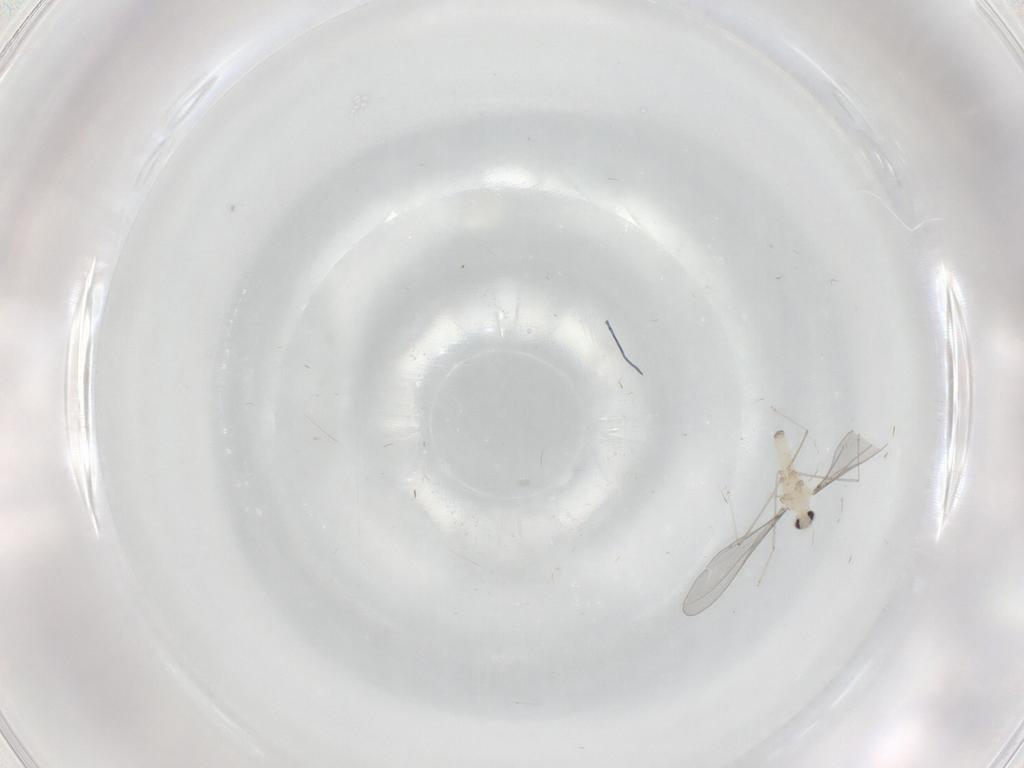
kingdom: Animalia
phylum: Arthropoda
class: Insecta
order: Diptera
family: Cecidomyiidae
